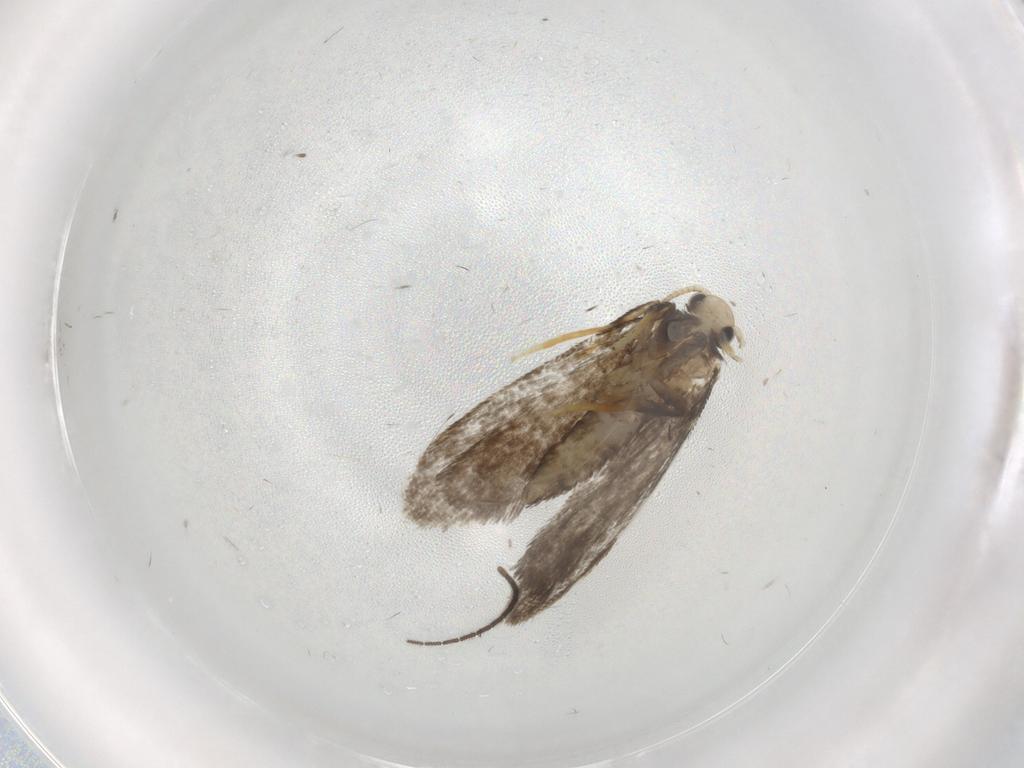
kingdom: Animalia
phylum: Arthropoda
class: Insecta
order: Lepidoptera
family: Psychidae
